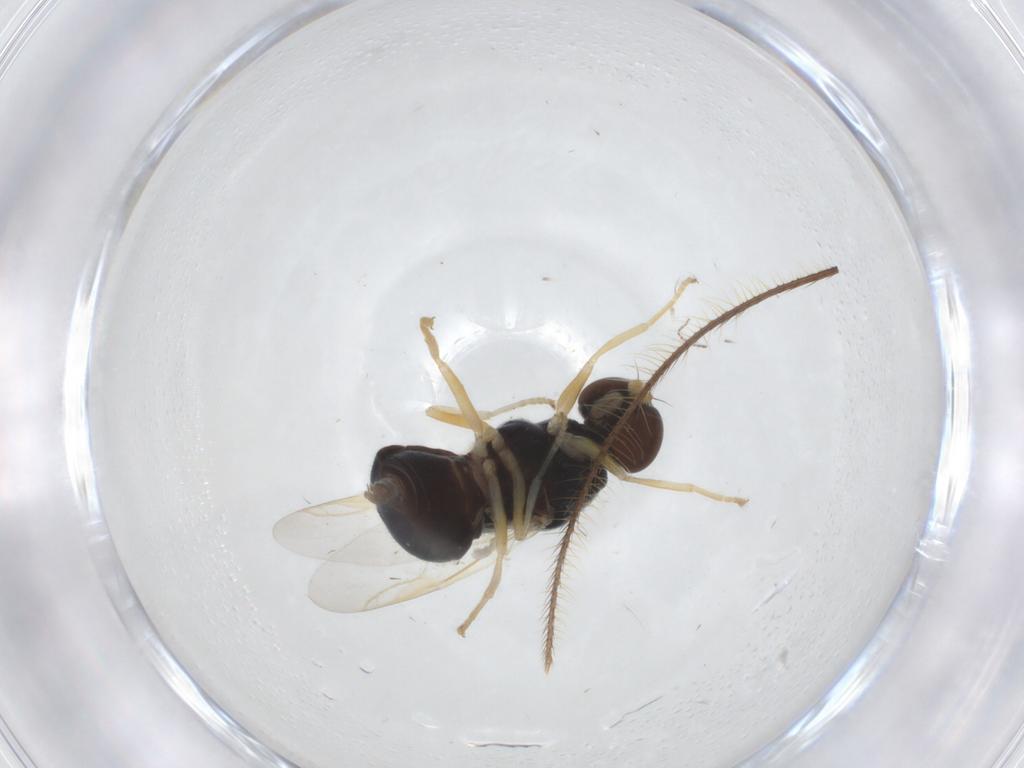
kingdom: Animalia
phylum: Arthropoda
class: Insecta
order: Diptera
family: Stratiomyidae
